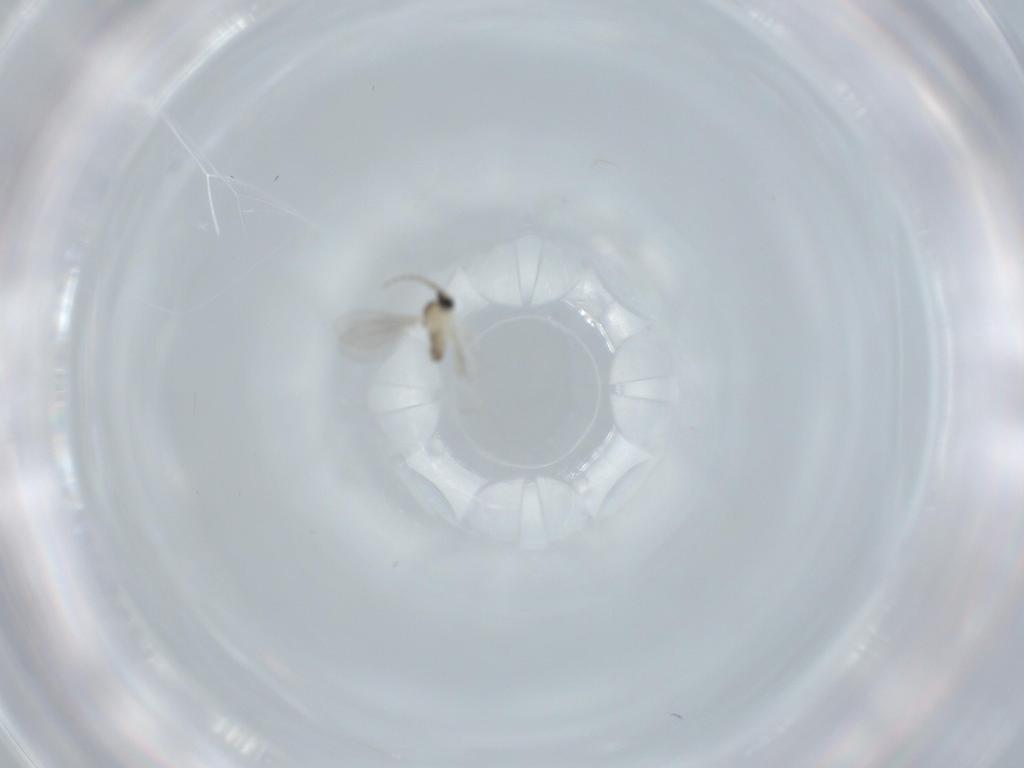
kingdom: Animalia
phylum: Arthropoda
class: Insecta
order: Diptera
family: Cecidomyiidae
